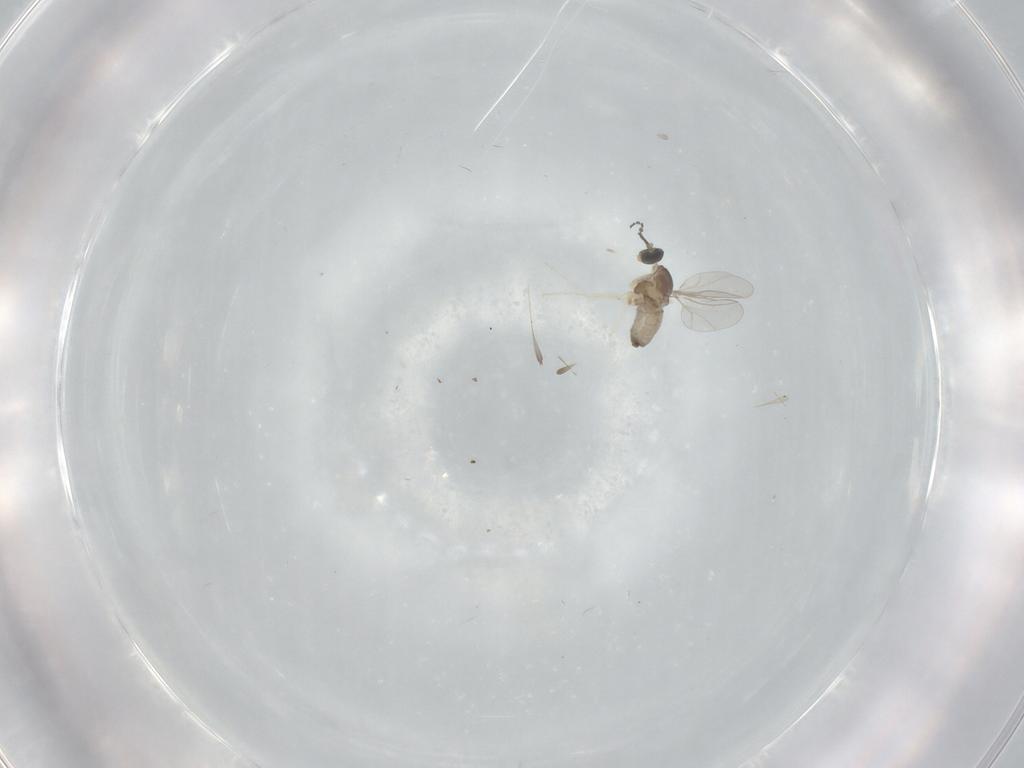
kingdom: Animalia
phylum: Arthropoda
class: Insecta
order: Diptera
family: Cecidomyiidae
